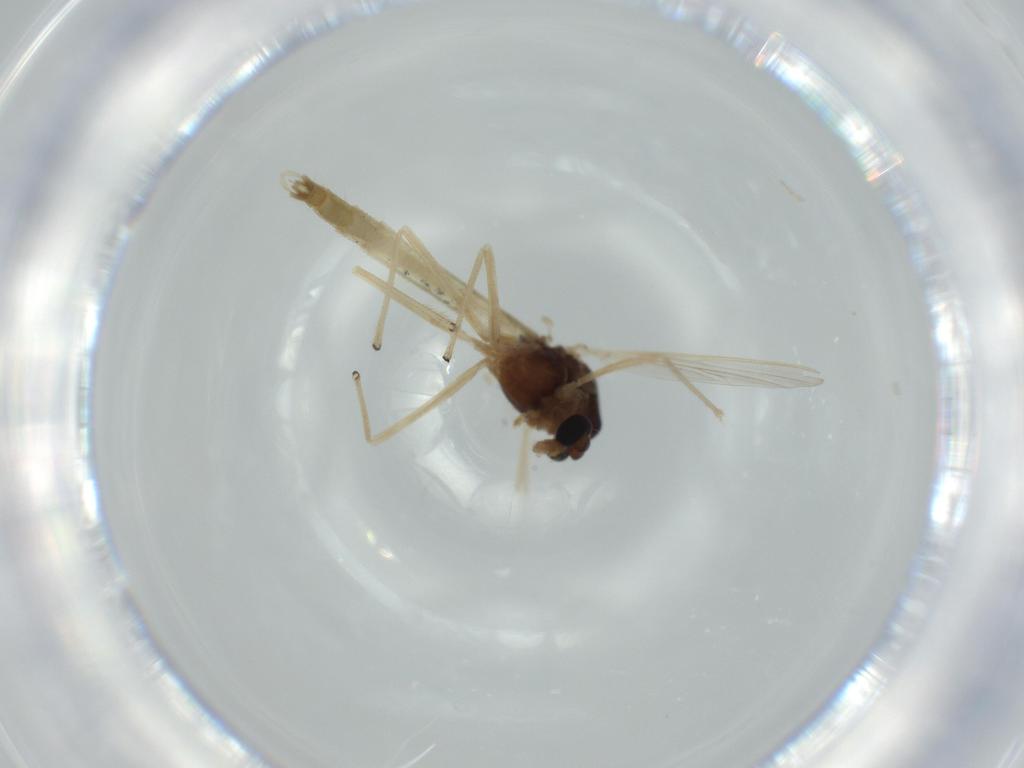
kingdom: Animalia
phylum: Arthropoda
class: Insecta
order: Diptera
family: Chironomidae
